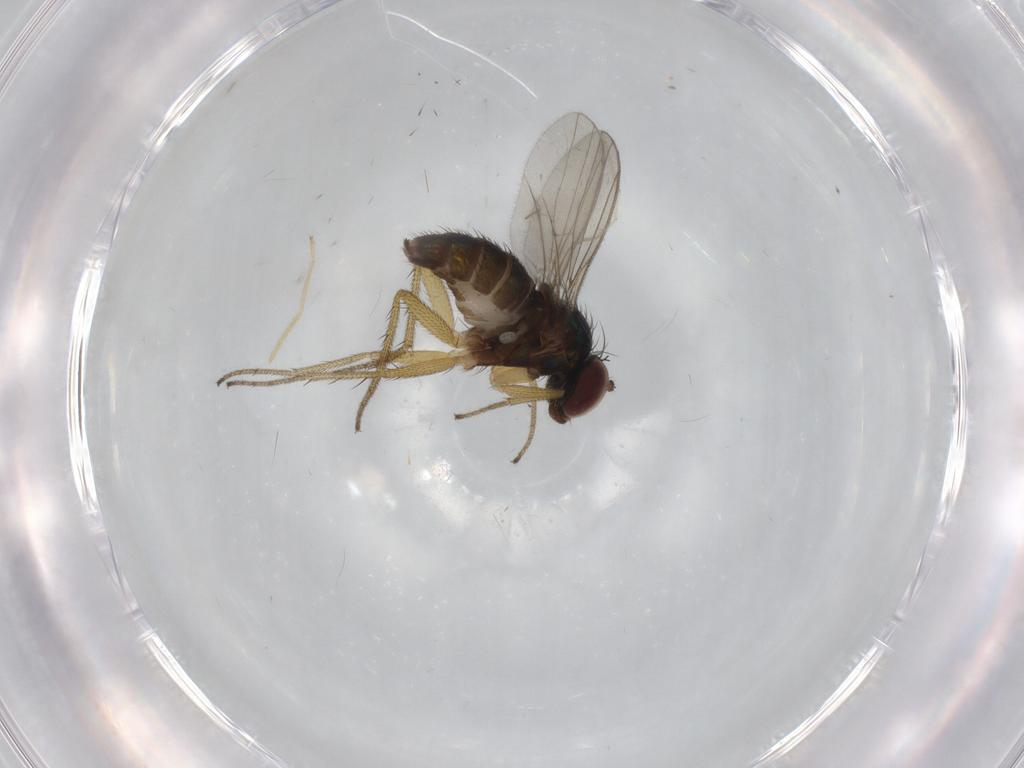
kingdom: Animalia
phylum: Arthropoda
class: Insecta
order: Diptera
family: Dolichopodidae
